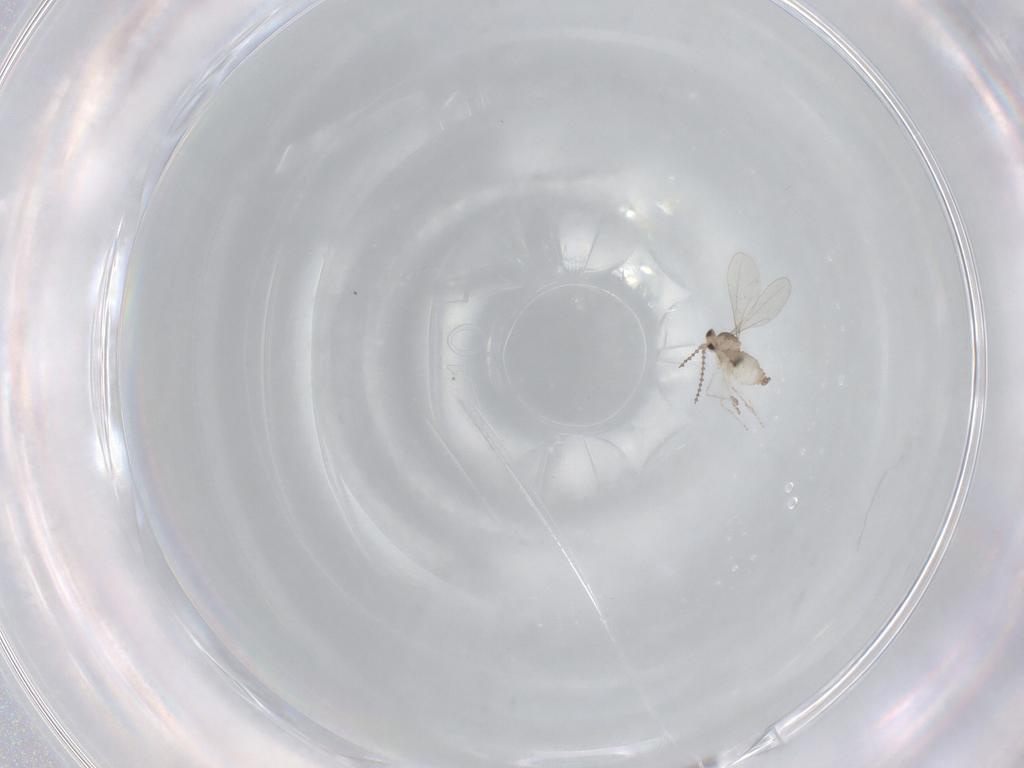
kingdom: Animalia
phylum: Arthropoda
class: Insecta
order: Diptera
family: Cecidomyiidae
